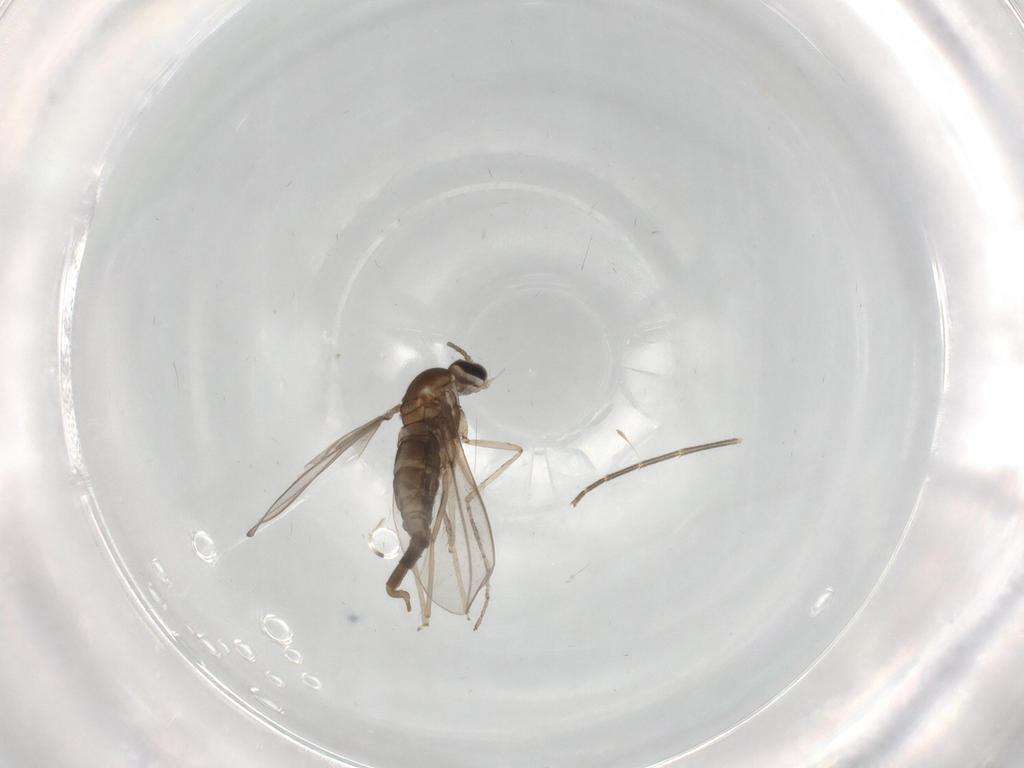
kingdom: Animalia
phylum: Arthropoda
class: Insecta
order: Diptera
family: Cecidomyiidae
